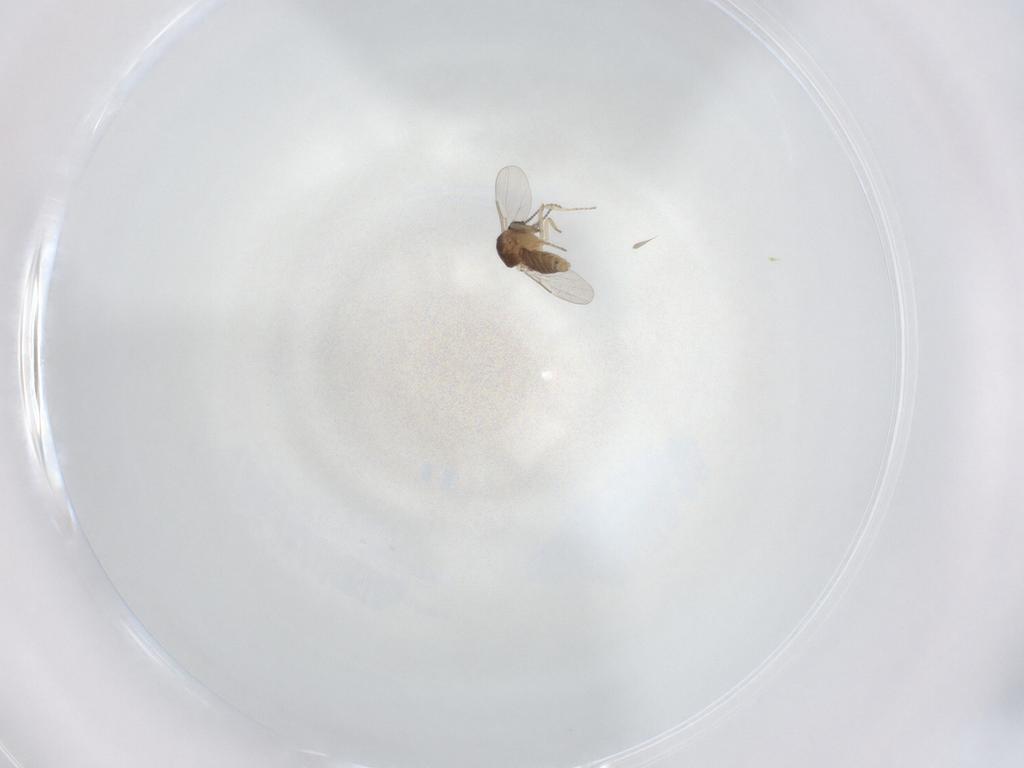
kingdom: Animalia
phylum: Arthropoda
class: Insecta
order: Diptera
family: Ceratopogonidae
